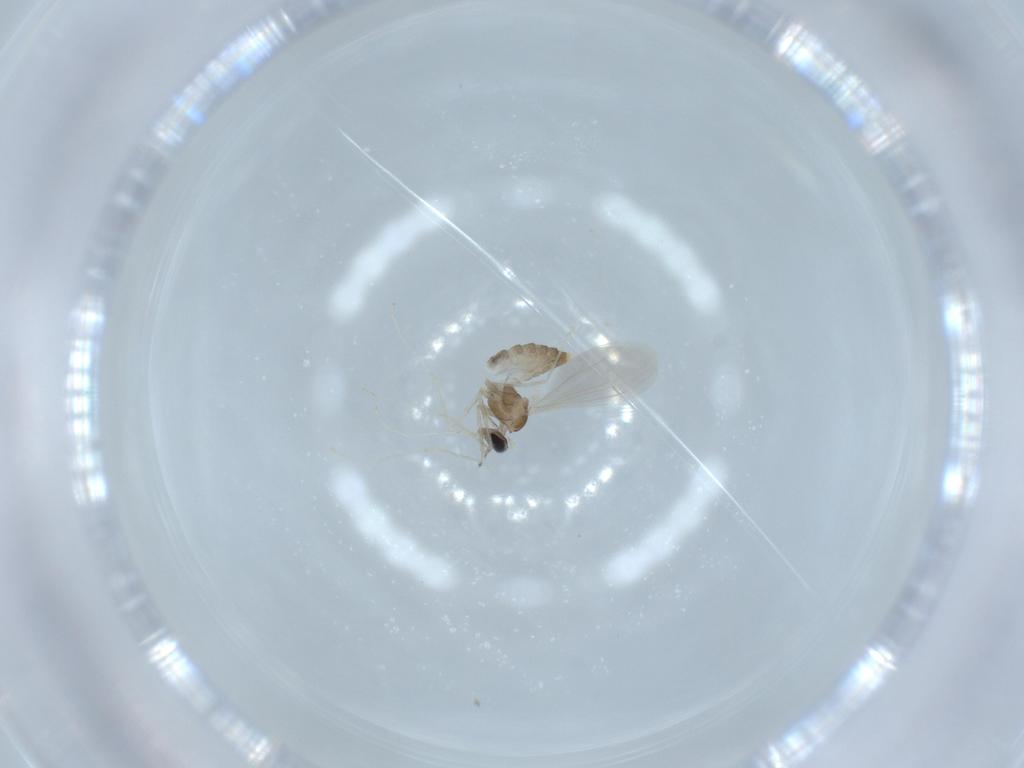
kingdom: Animalia
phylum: Arthropoda
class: Insecta
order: Diptera
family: Cecidomyiidae
